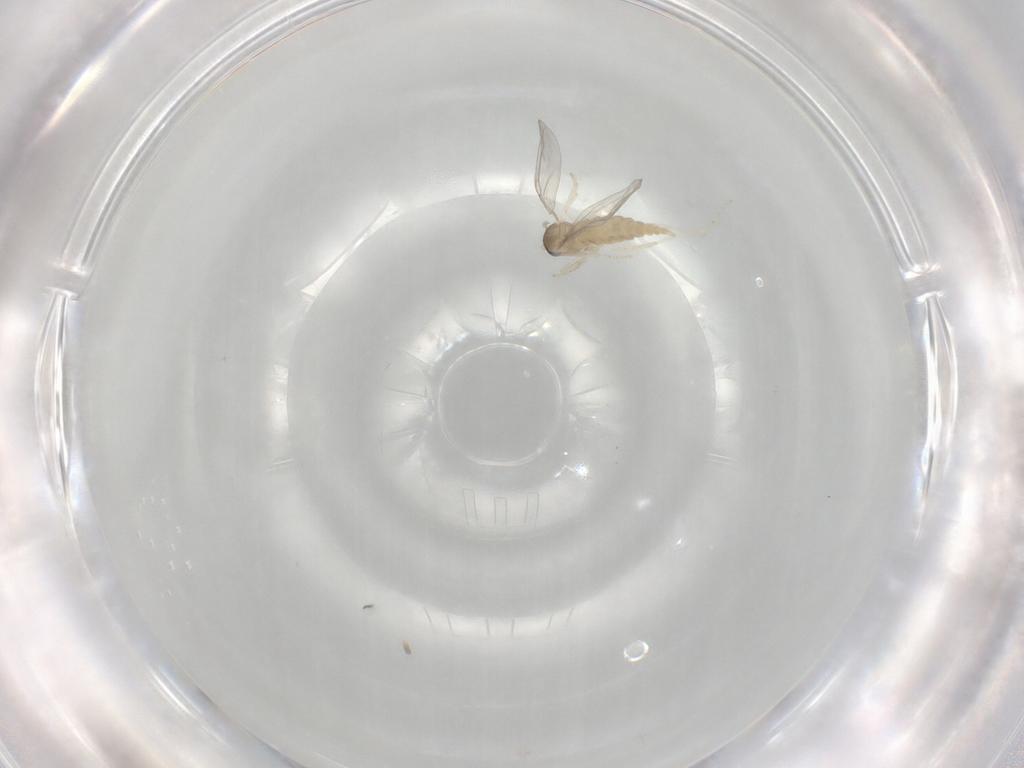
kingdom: Animalia
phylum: Arthropoda
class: Insecta
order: Diptera
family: Cecidomyiidae
